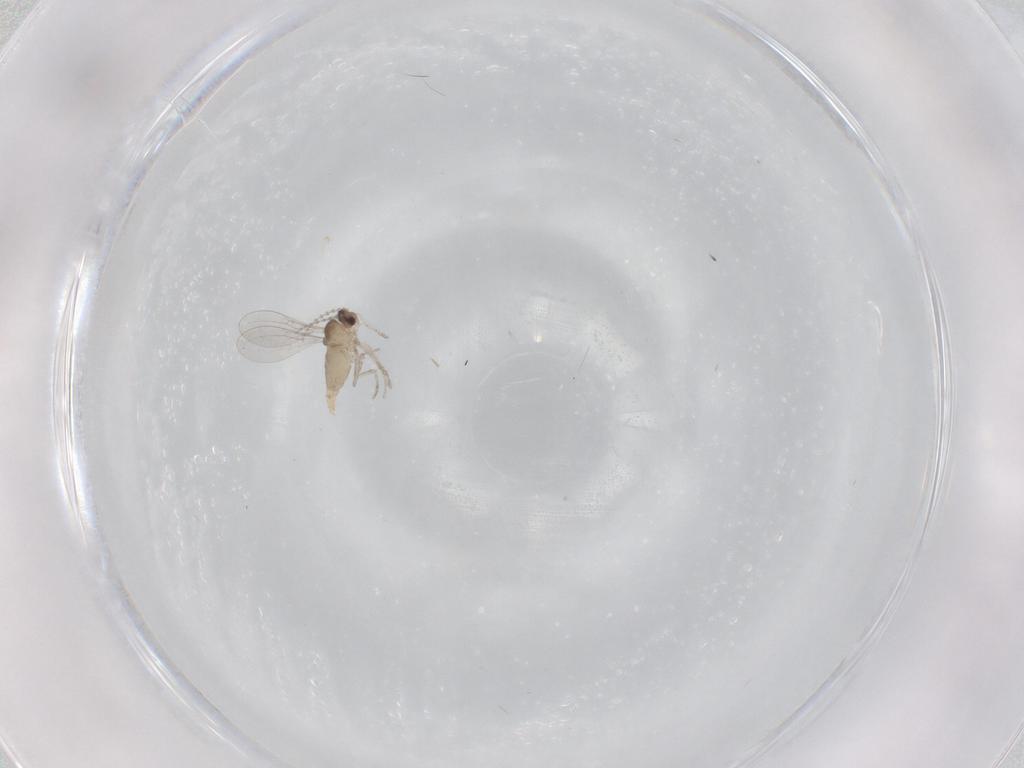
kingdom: Animalia
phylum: Arthropoda
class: Insecta
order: Diptera
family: Cecidomyiidae
